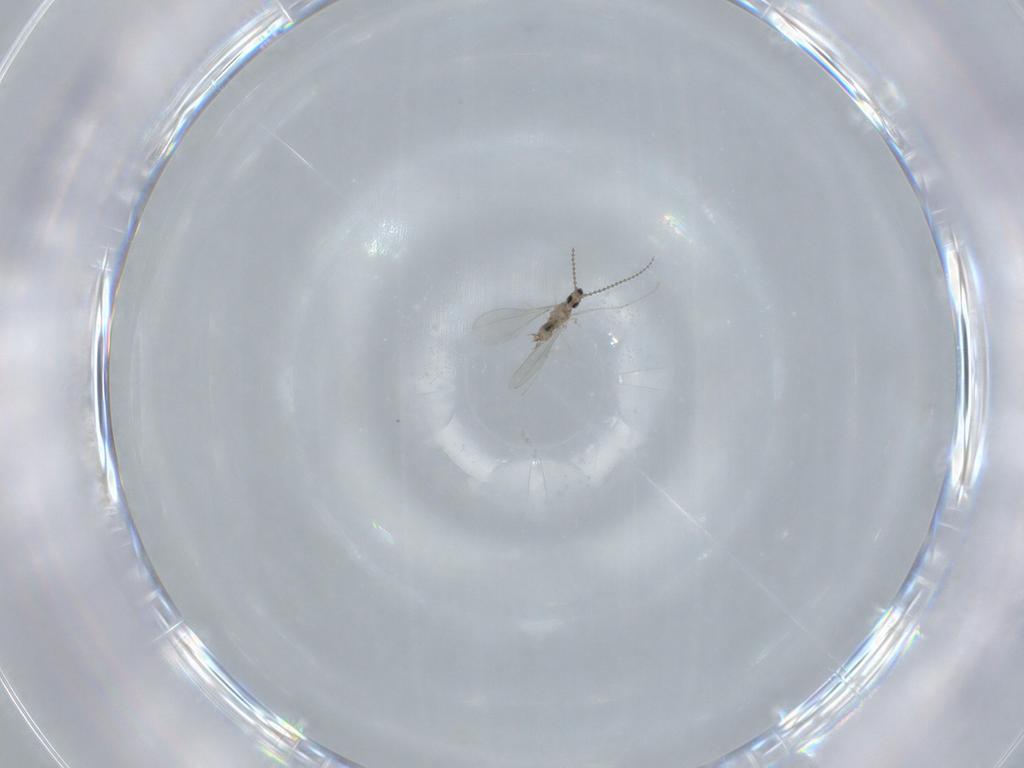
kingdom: Animalia
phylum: Arthropoda
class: Insecta
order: Diptera
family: Cecidomyiidae
